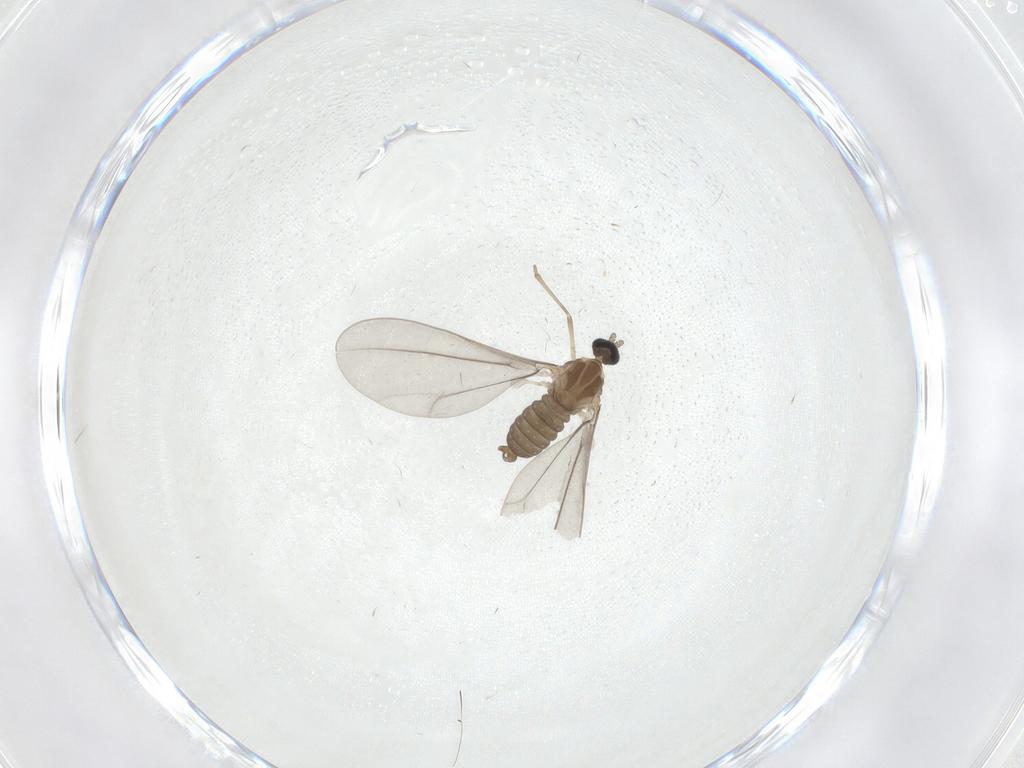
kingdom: Animalia
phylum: Arthropoda
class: Insecta
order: Diptera
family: Cecidomyiidae
